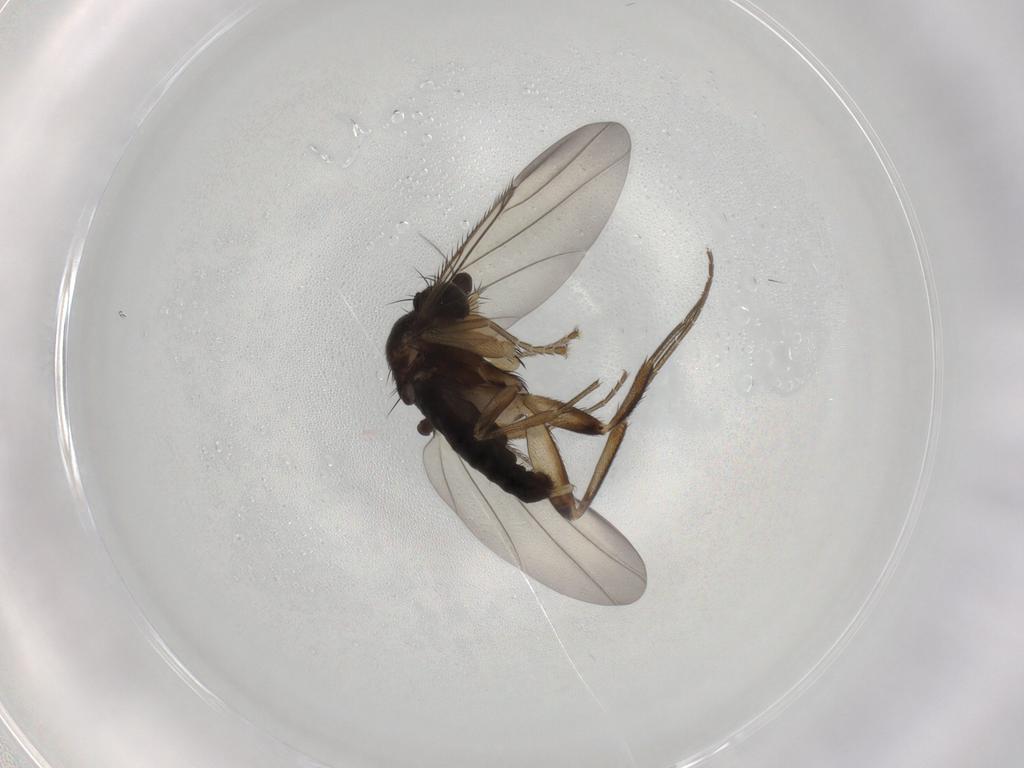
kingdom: Animalia
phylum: Arthropoda
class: Insecta
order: Diptera
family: Phoridae
